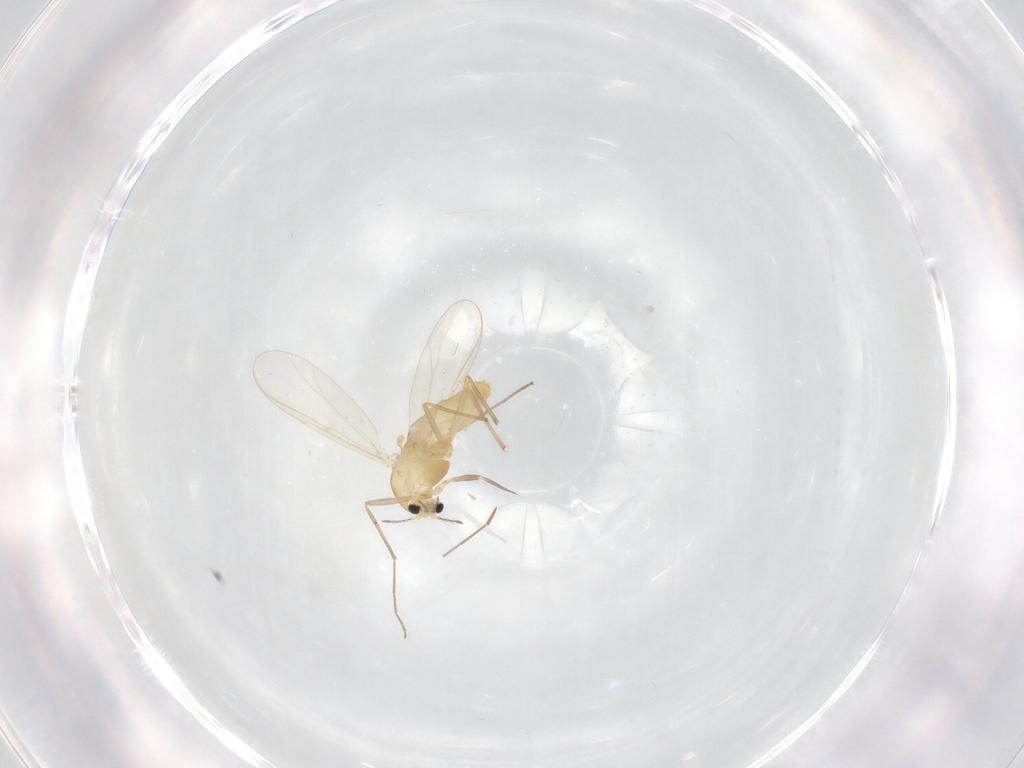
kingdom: Animalia
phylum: Arthropoda
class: Insecta
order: Diptera
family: Chironomidae
